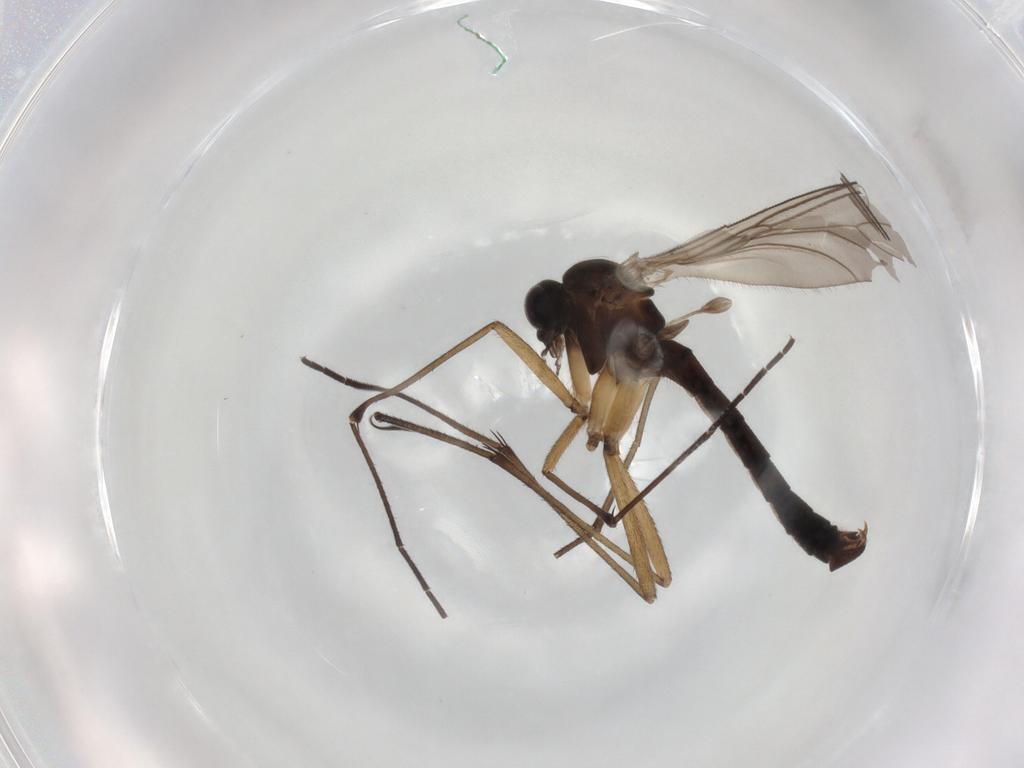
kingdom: Animalia
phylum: Arthropoda
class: Insecta
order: Diptera
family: Rangomaramidae
